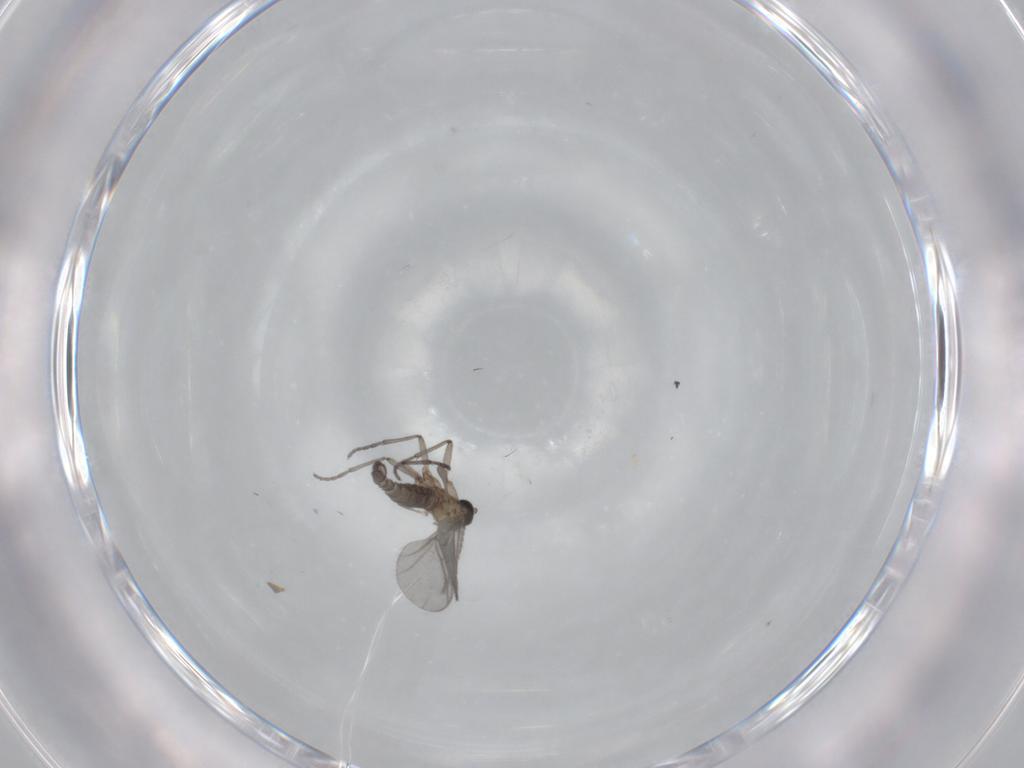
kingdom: Animalia
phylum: Arthropoda
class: Insecta
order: Diptera
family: Sciaridae
